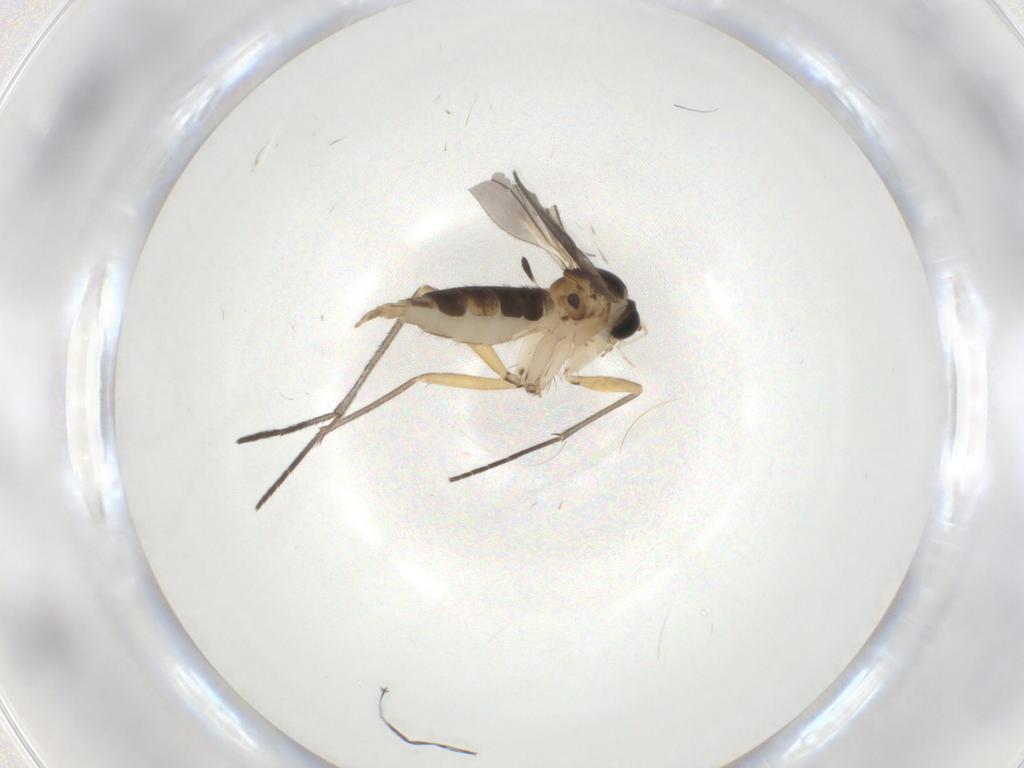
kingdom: Animalia
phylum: Arthropoda
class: Insecta
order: Diptera
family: Sciaridae
